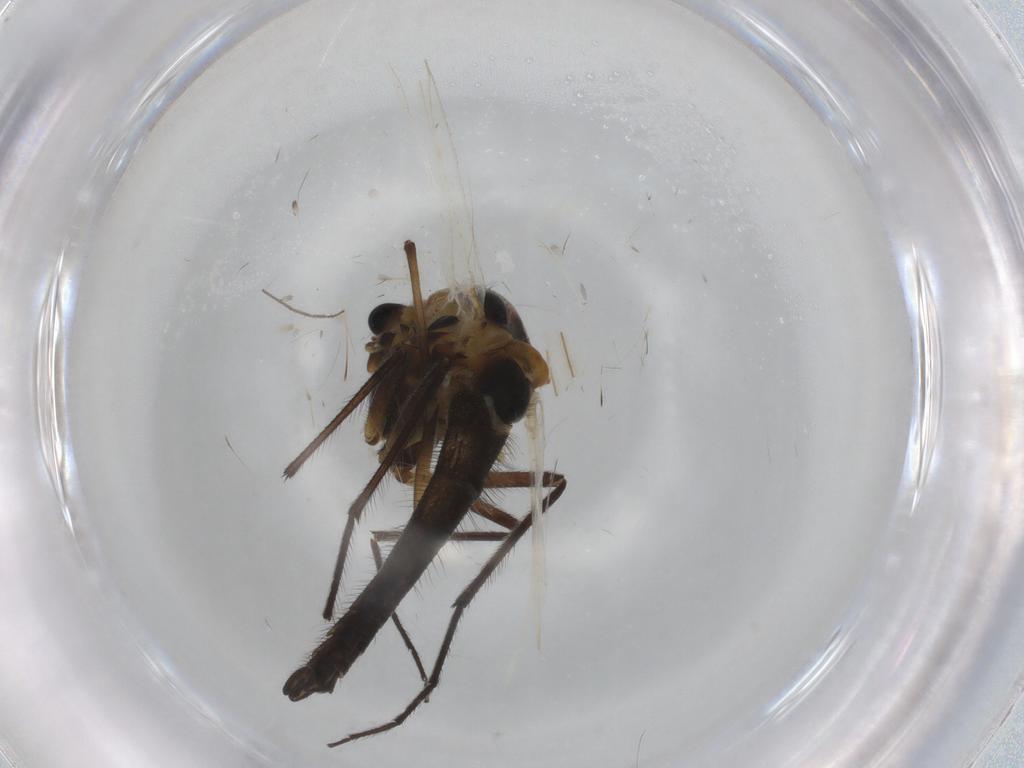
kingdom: Animalia
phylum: Arthropoda
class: Insecta
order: Diptera
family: Chironomidae
